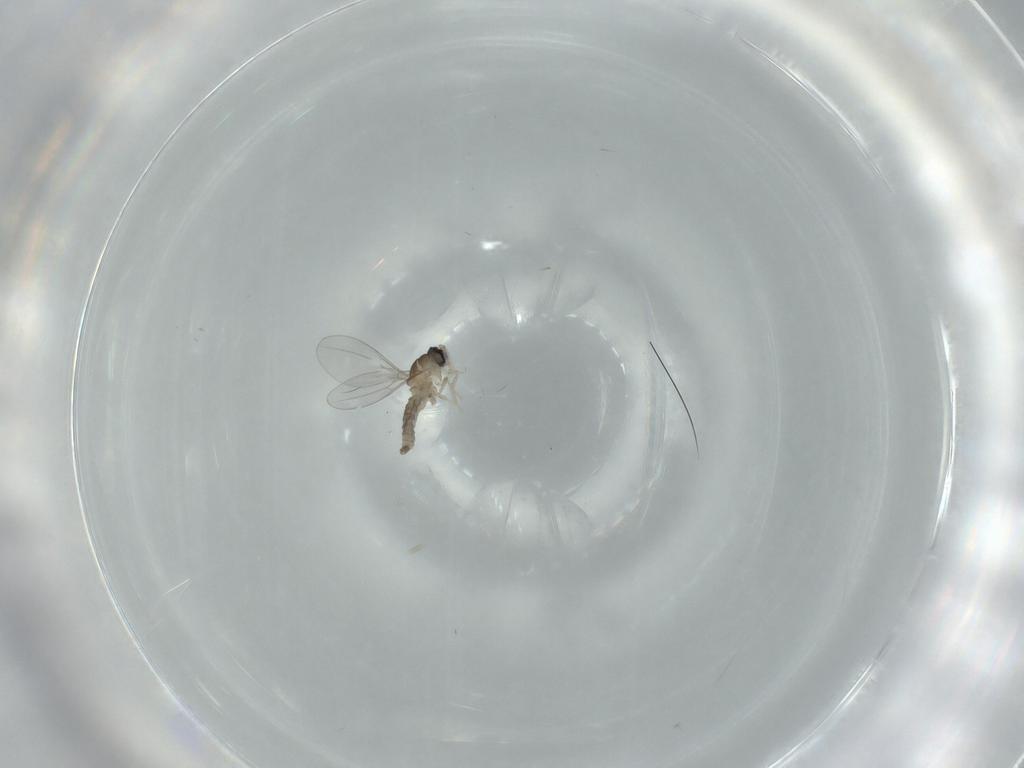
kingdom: Animalia
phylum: Arthropoda
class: Insecta
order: Diptera
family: Cecidomyiidae
